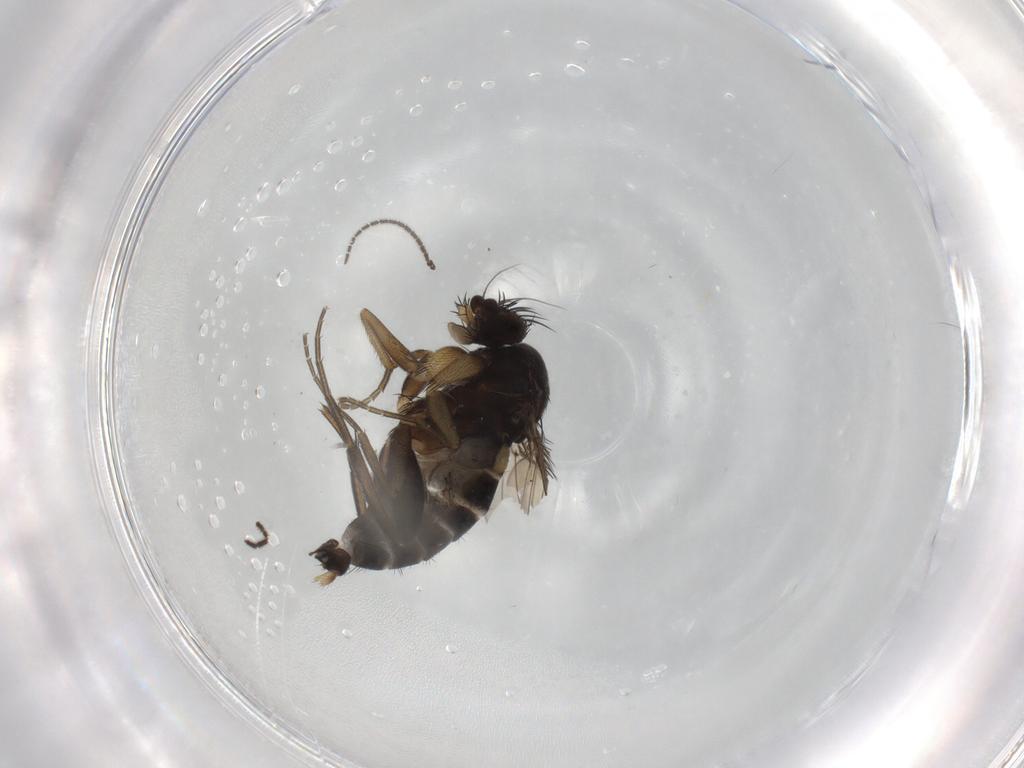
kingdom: Animalia
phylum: Arthropoda
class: Insecta
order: Diptera
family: Phoridae
